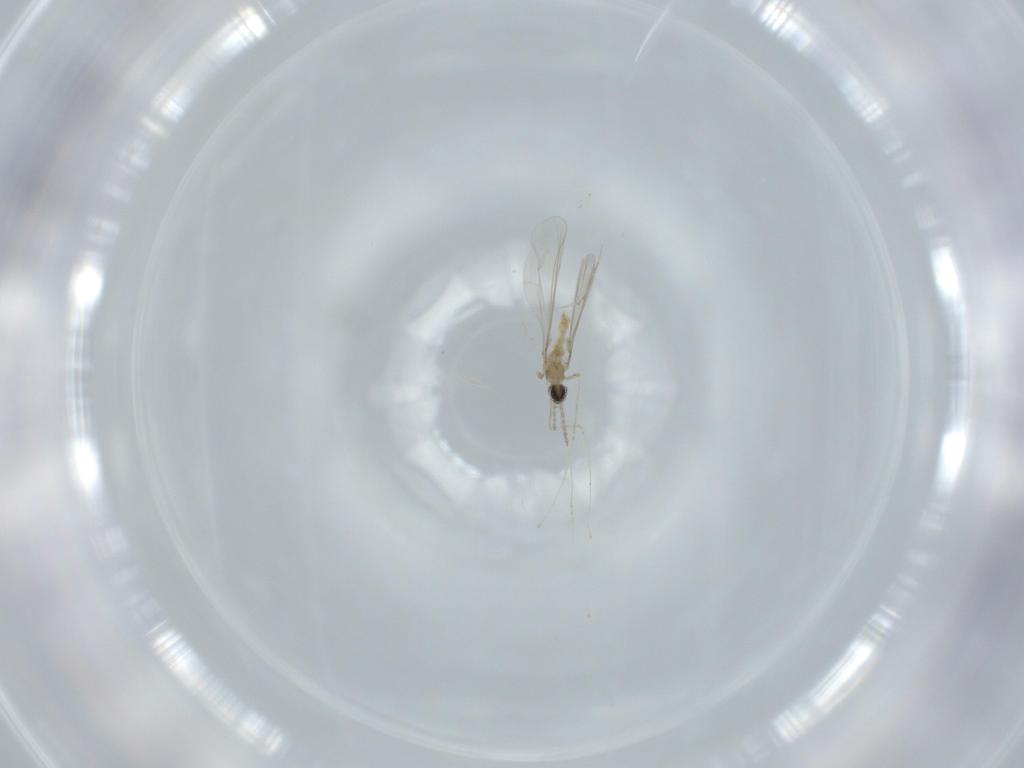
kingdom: Animalia
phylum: Arthropoda
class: Insecta
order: Diptera
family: Cecidomyiidae
